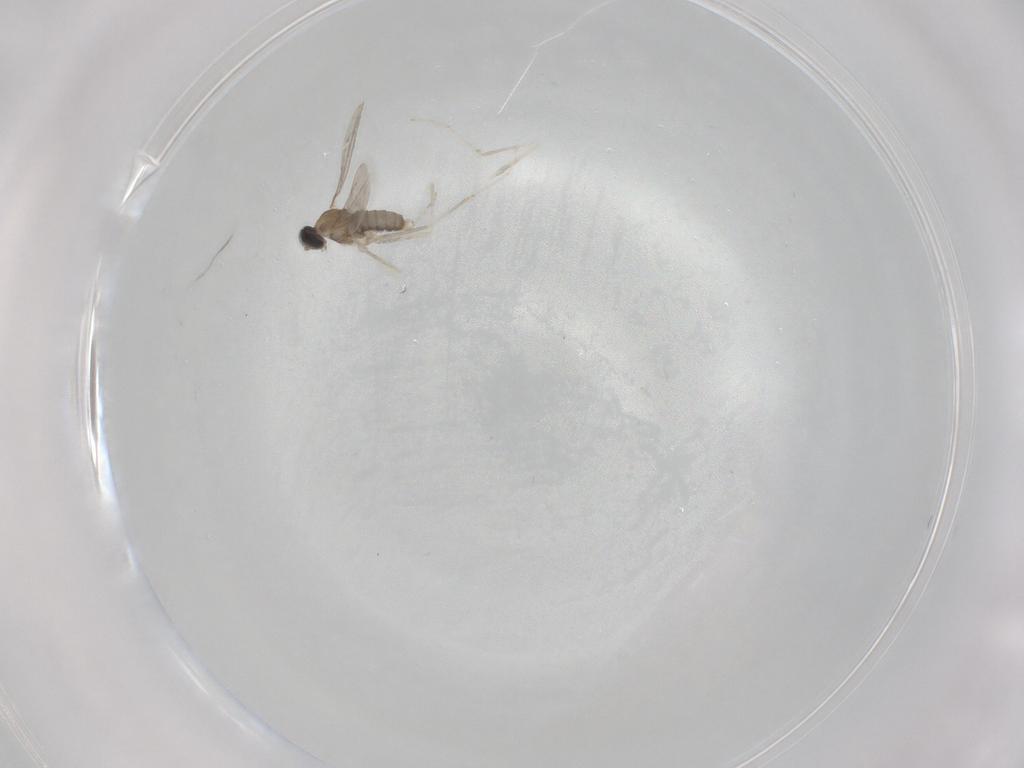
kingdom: Animalia
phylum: Arthropoda
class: Insecta
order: Diptera
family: Cecidomyiidae
